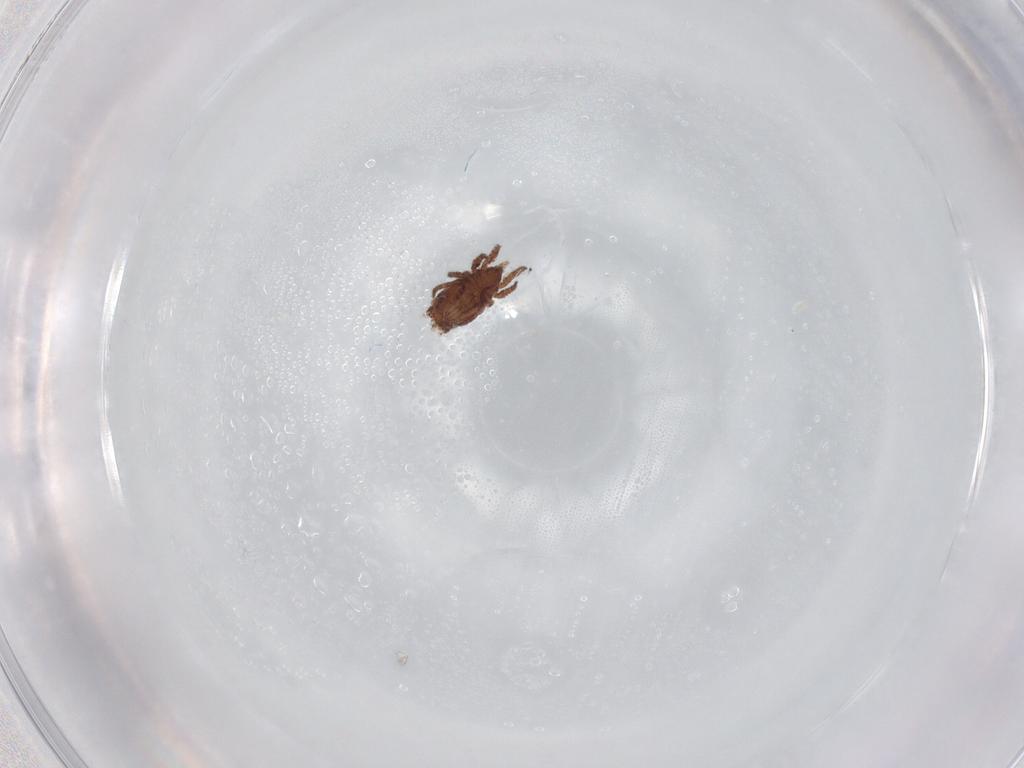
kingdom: Animalia
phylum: Arthropoda
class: Arachnida
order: Sarcoptiformes
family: Crotoniidae
